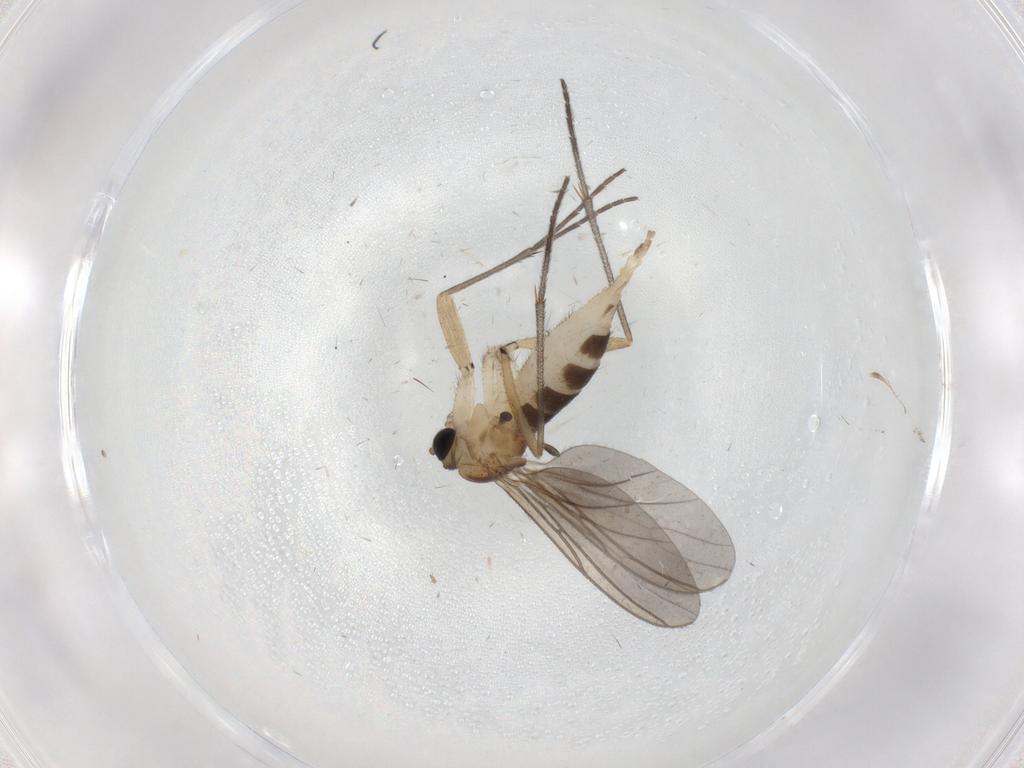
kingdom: Animalia
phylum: Arthropoda
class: Insecta
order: Diptera
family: Sciaridae
